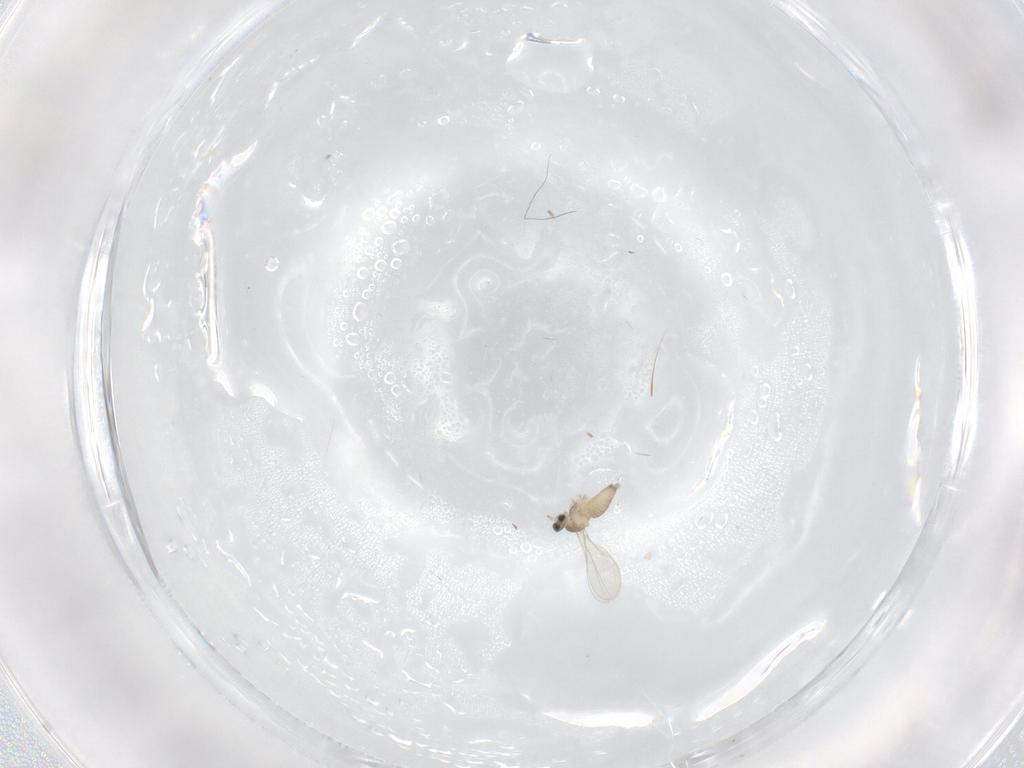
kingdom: Animalia
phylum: Arthropoda
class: Insecta
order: Diptera
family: Cecidomyiidae
